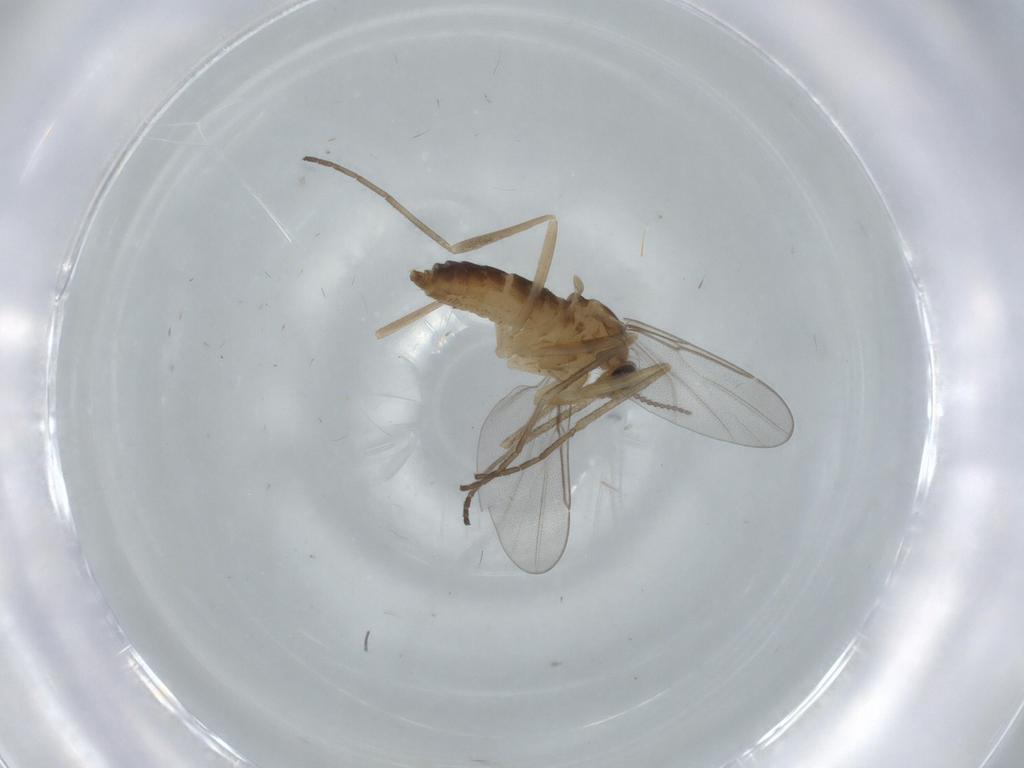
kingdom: Animalia
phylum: Arthropoda
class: Insecta
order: Diptera
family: Cecidomyiidae
